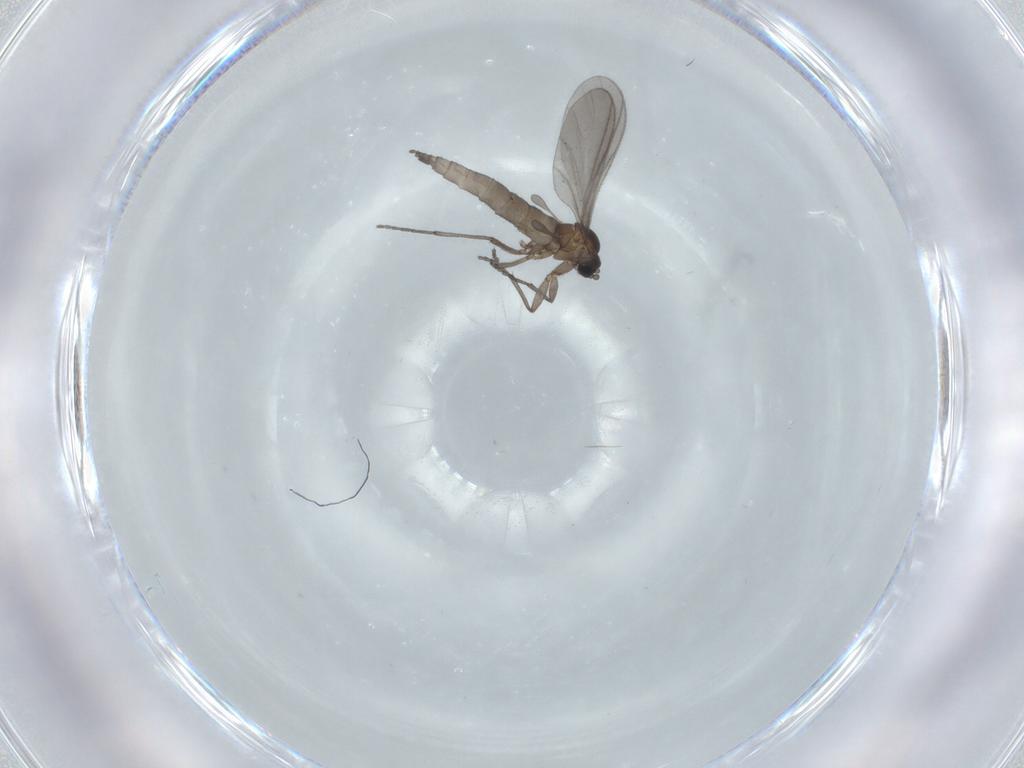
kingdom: Animalia
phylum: Arthropoda
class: Insecta
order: Diptera
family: Sciaridae
